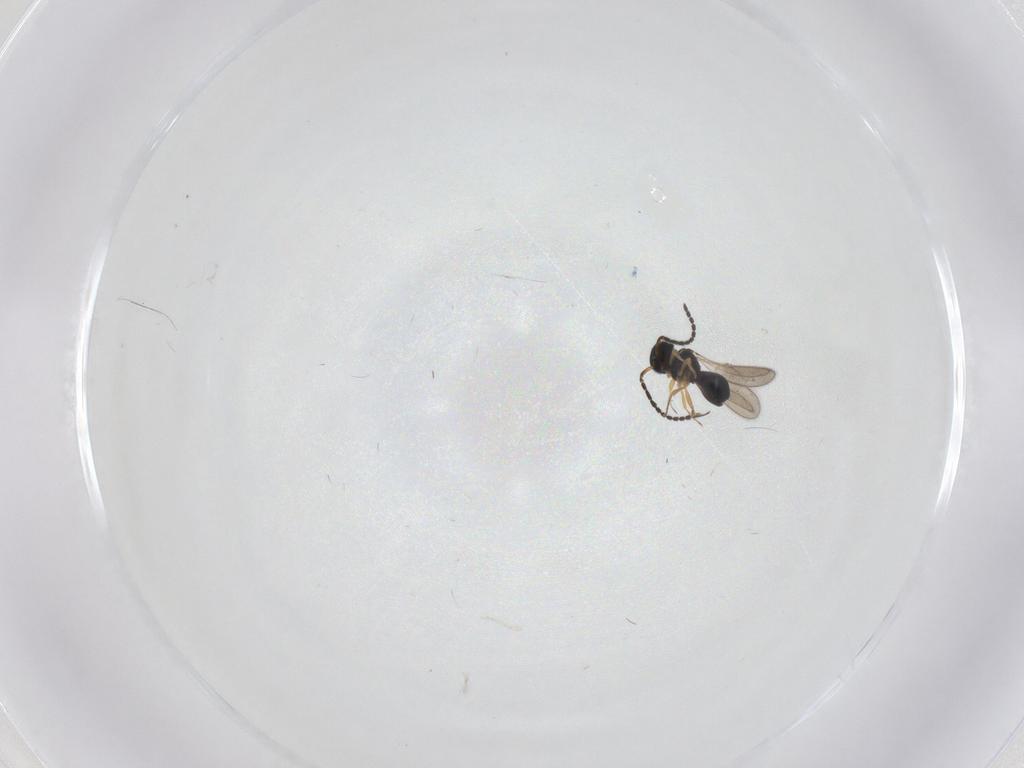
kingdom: Animalia
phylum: Arthropoda
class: Insecta
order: Hymenoptera
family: Scelionidae
